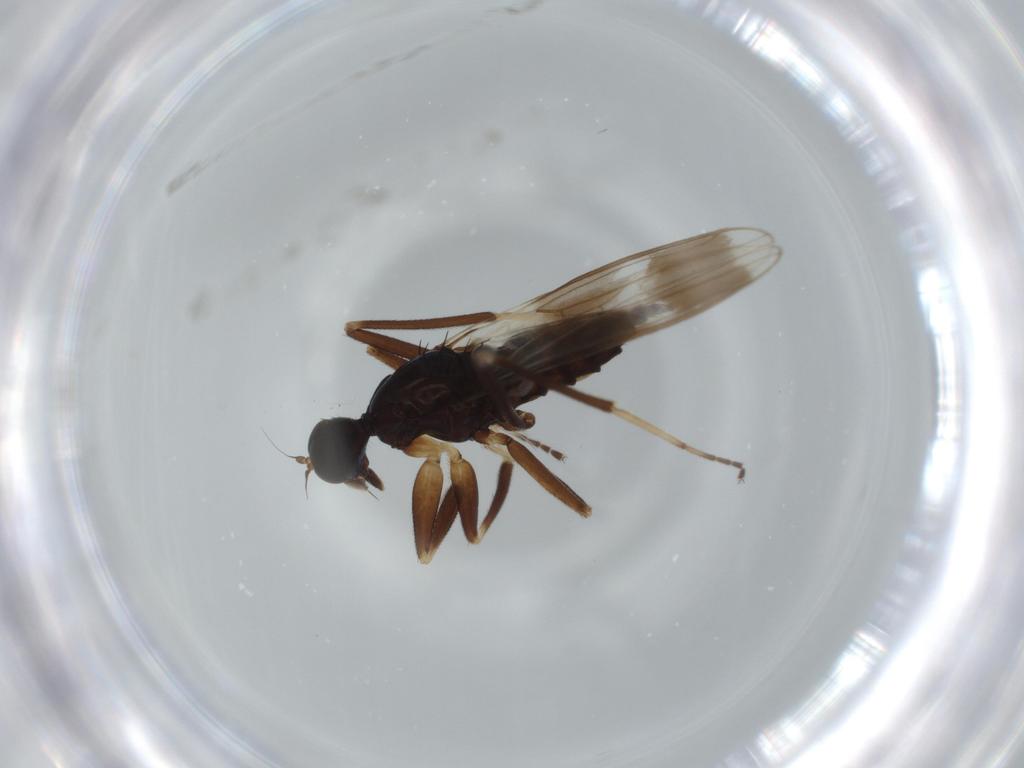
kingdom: Animalia
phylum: Arthropoda
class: Insecta
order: Diptera
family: Hybotidae
